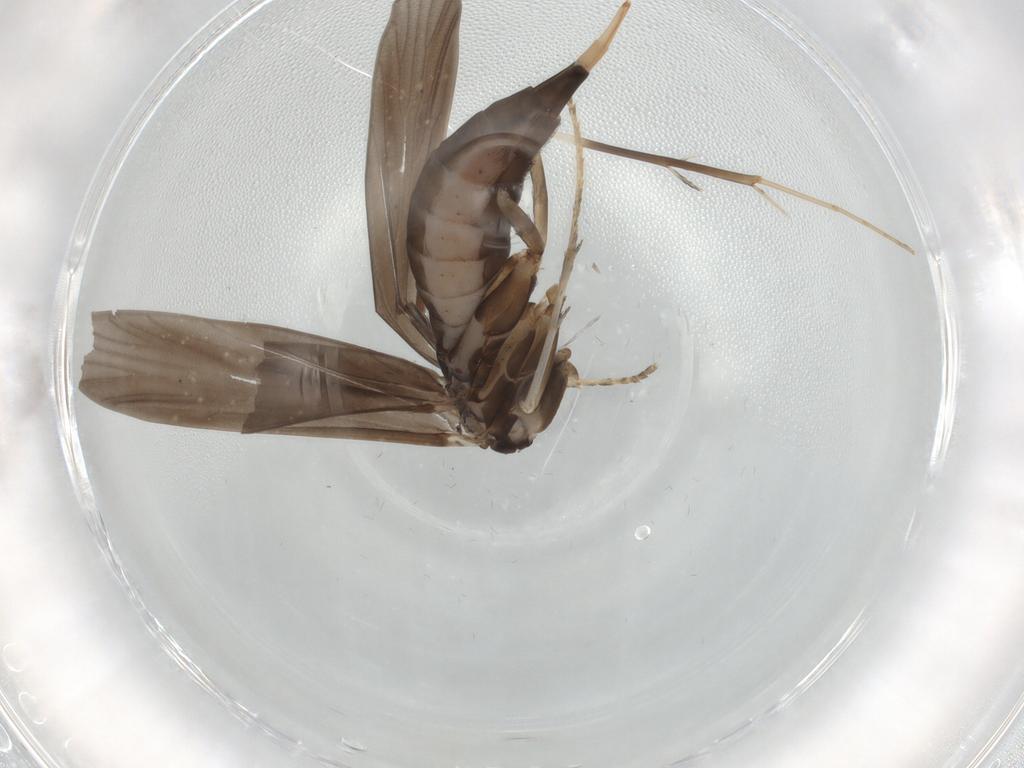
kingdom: Animalia
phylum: Arthropoda
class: Insecta
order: Trichoptera
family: Xiphocentronidae
